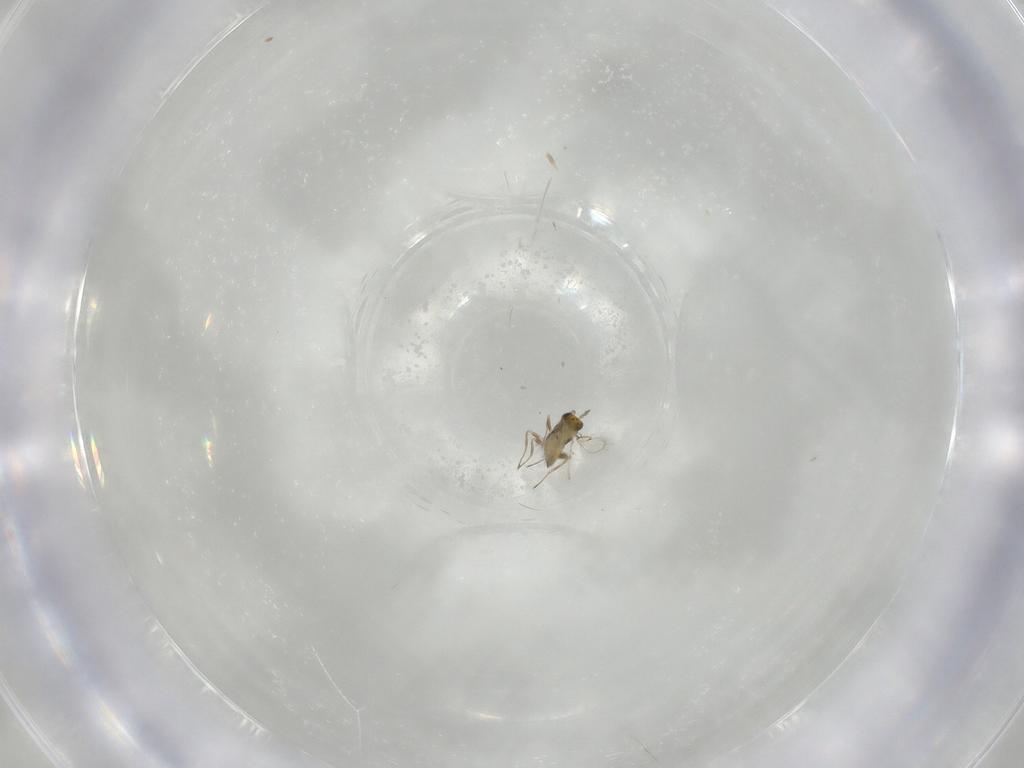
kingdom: Animalia
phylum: Arthropoda
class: Insecta
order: Hymenoptera
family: Trichogrammatidae
